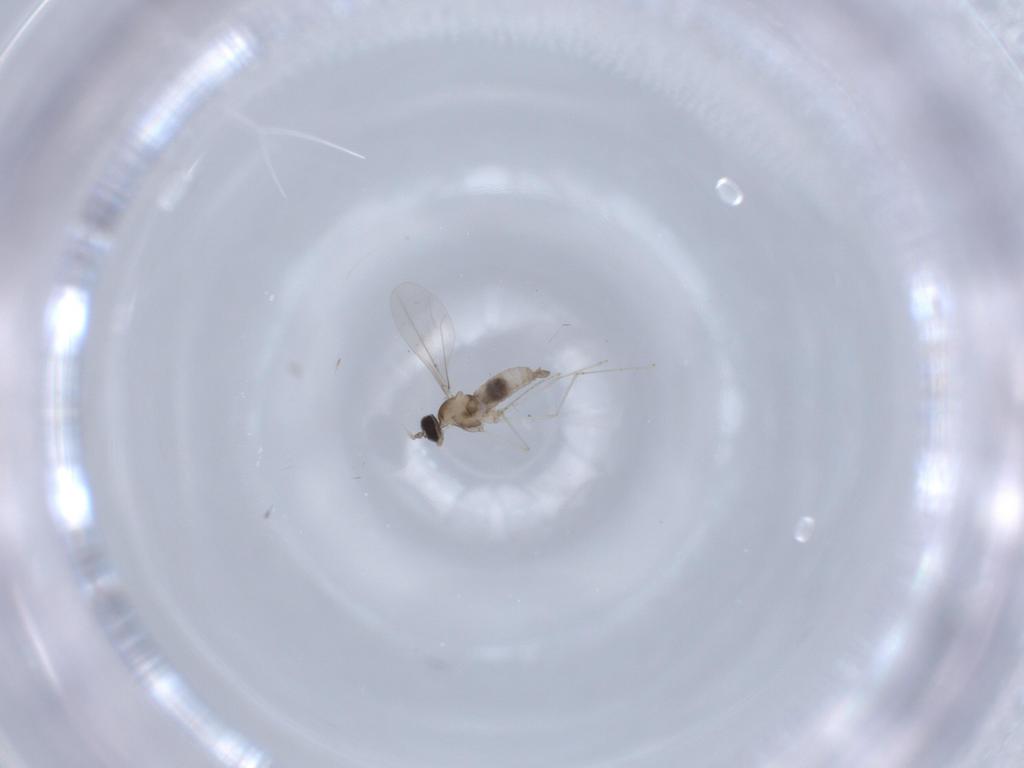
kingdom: Animalia
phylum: Arthropoda
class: Insecta
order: Diptera
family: Cecidomyiidae
